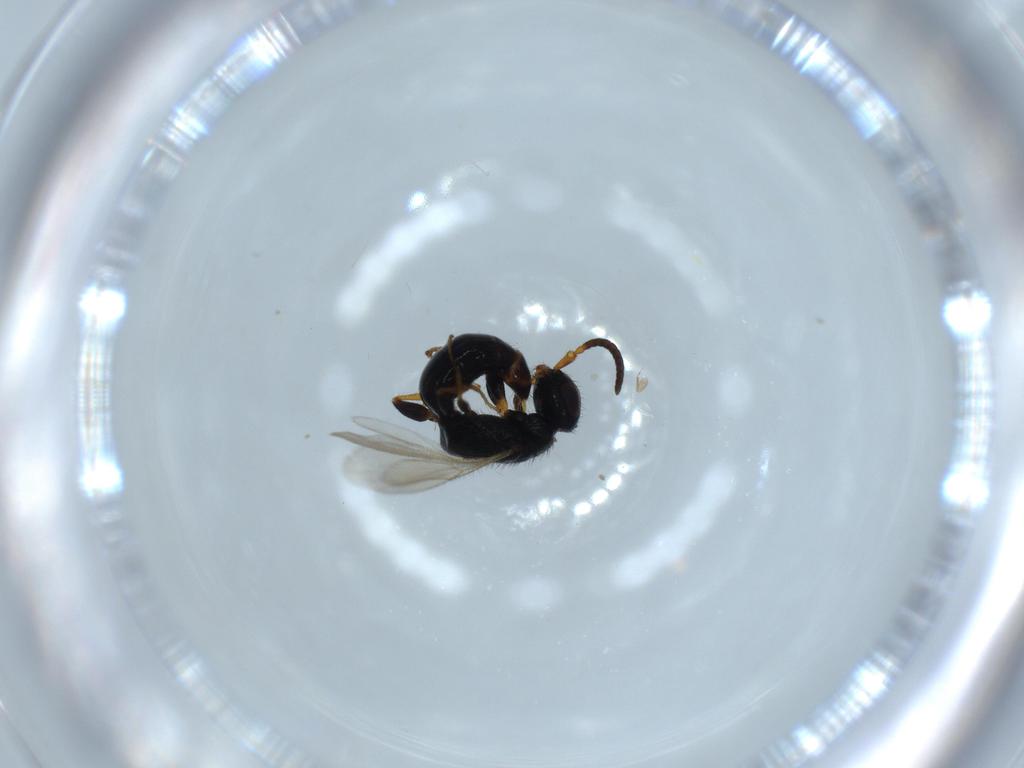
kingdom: Animalia
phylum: Arthropoda
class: Insecta
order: Hymenoptera
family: Bethylidae
